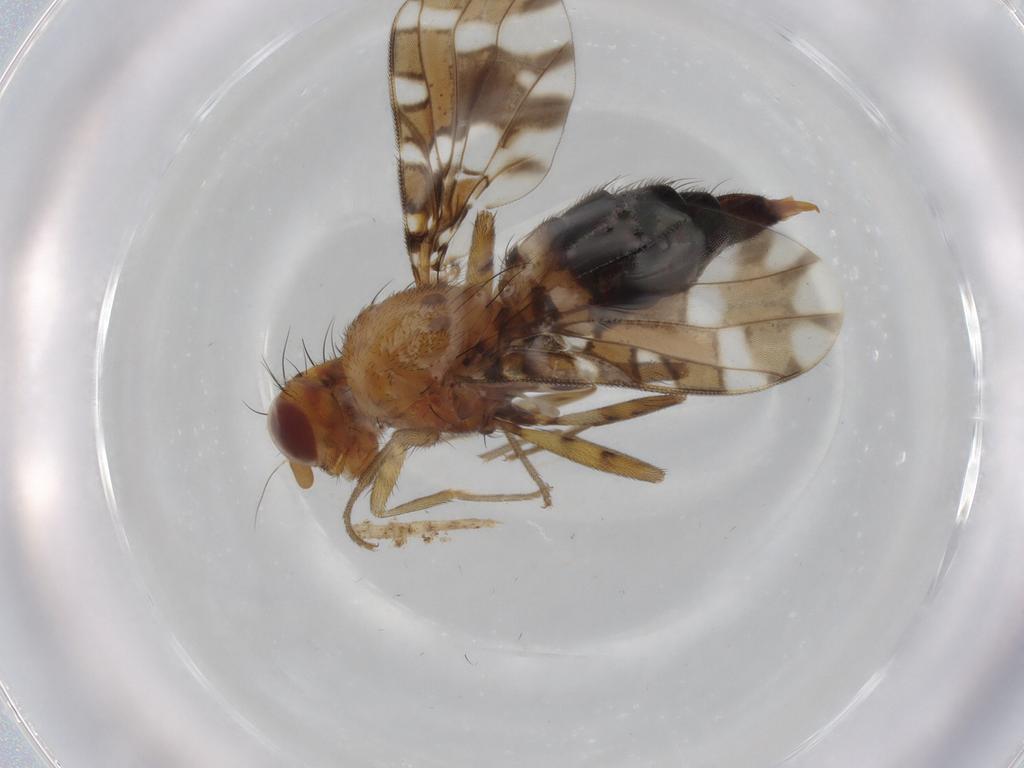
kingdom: Animalia
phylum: Arthropoda
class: Insecta
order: Diptera
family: Ulidiidae
